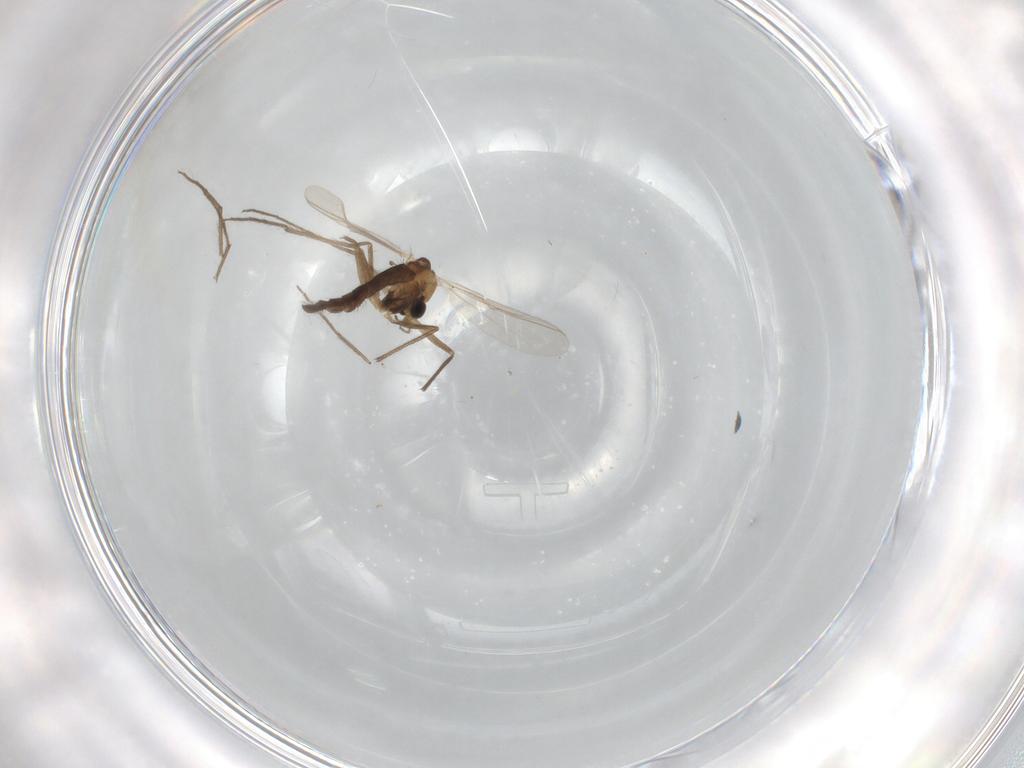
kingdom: Animalia
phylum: Arthropoda
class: Insecta
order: Diptera
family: Chironomidae
